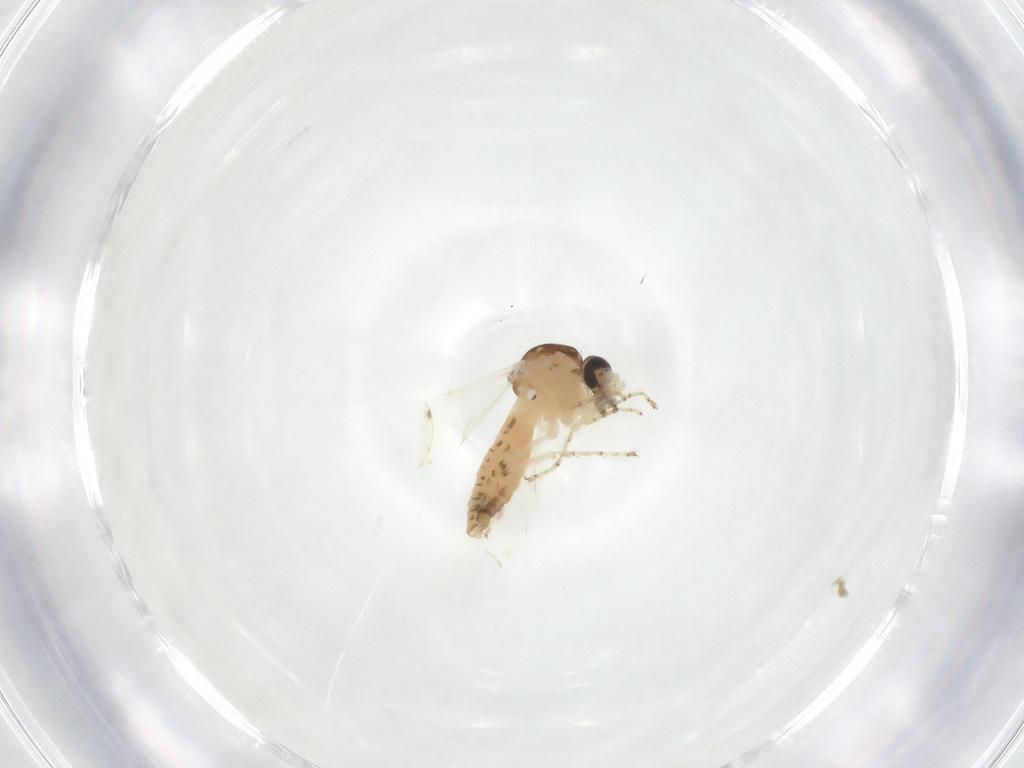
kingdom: Animalia
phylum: Arthropoda
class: Insecta
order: Diptera
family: Ceratopogonidae
